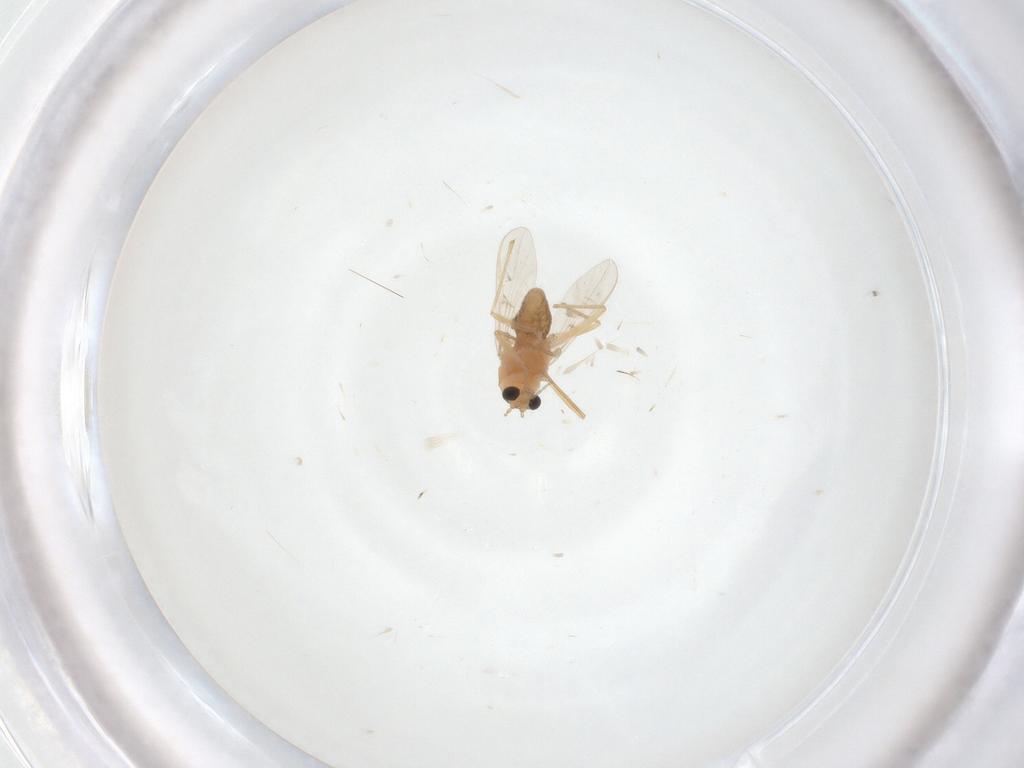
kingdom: Animalia
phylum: Arthropoda
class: Insecta
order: Diptera
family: Chironomidae
